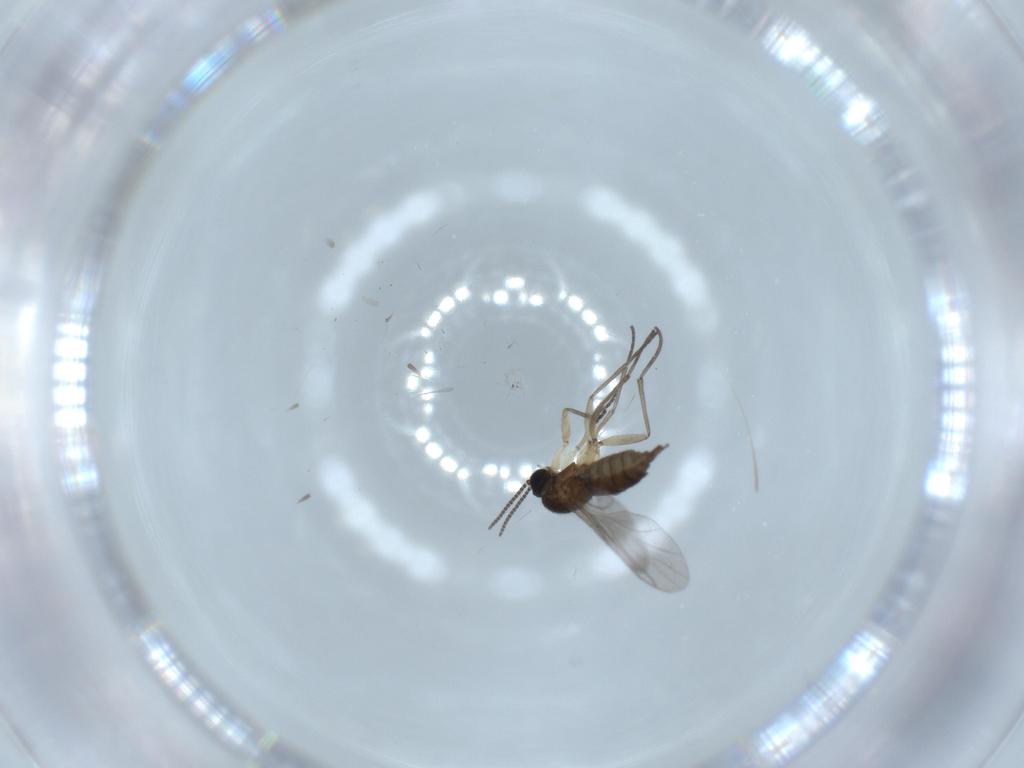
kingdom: Animalia
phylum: Arthropoda
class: Insecta
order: Diptera
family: Sciaridae
